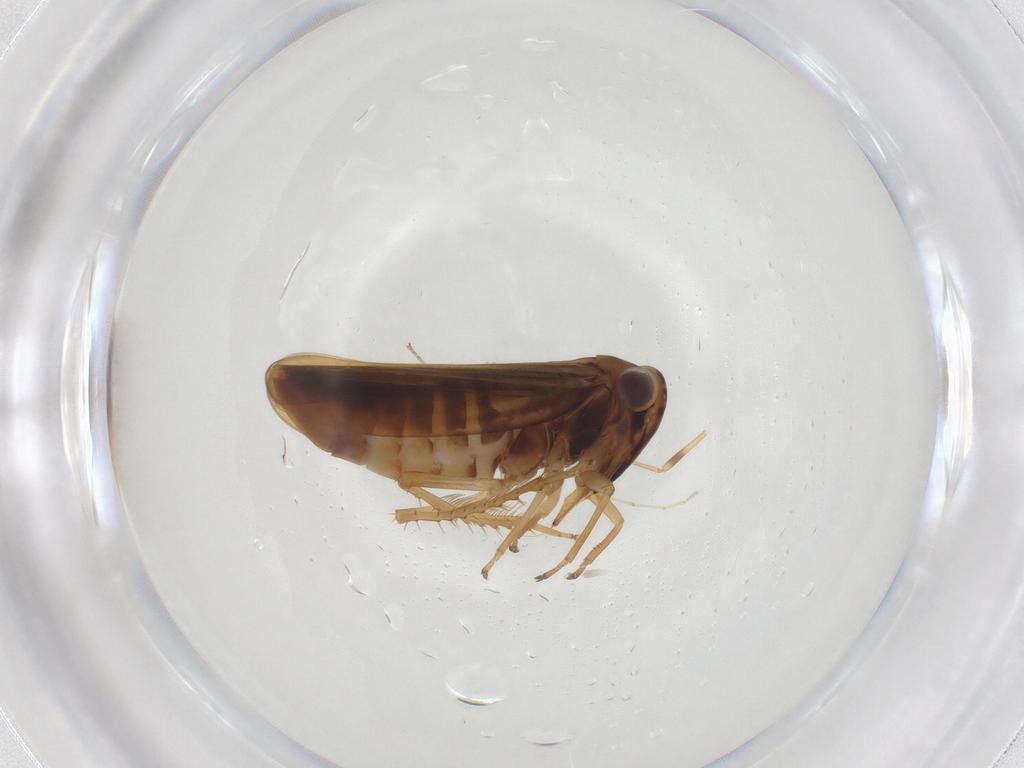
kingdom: Animalia
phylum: Arthropoda
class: Insecta
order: Hemiptera
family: Cicadellidae
